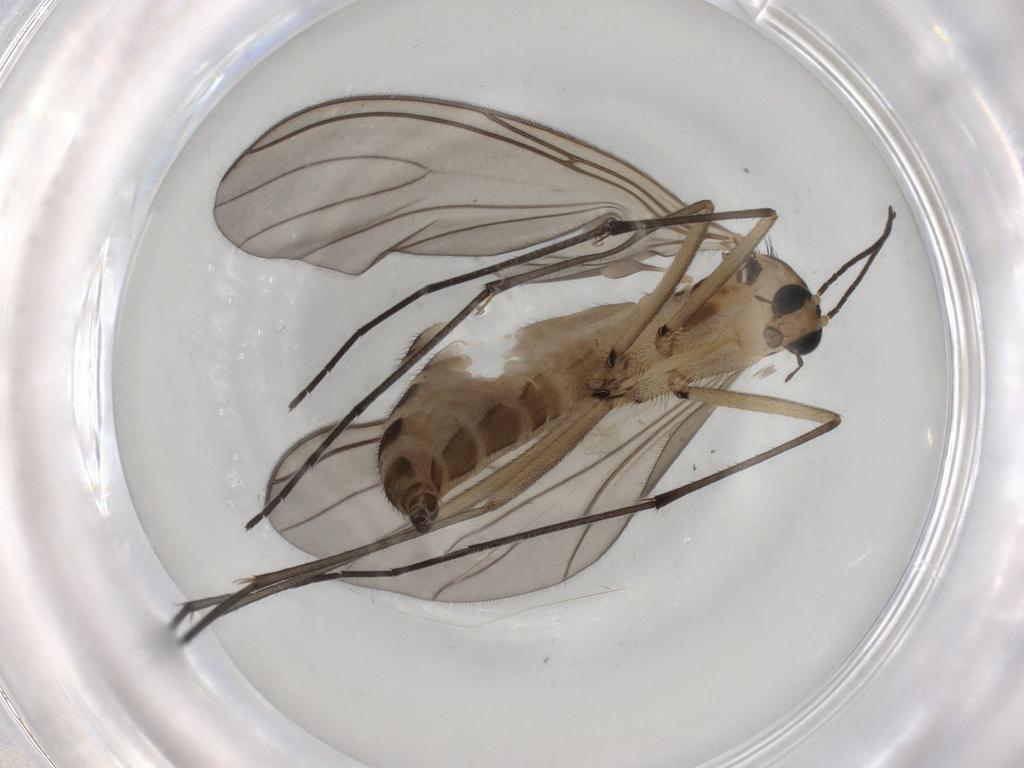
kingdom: Animalia
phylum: Arthropoda
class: Insecta
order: Diptera
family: Sciaridae
